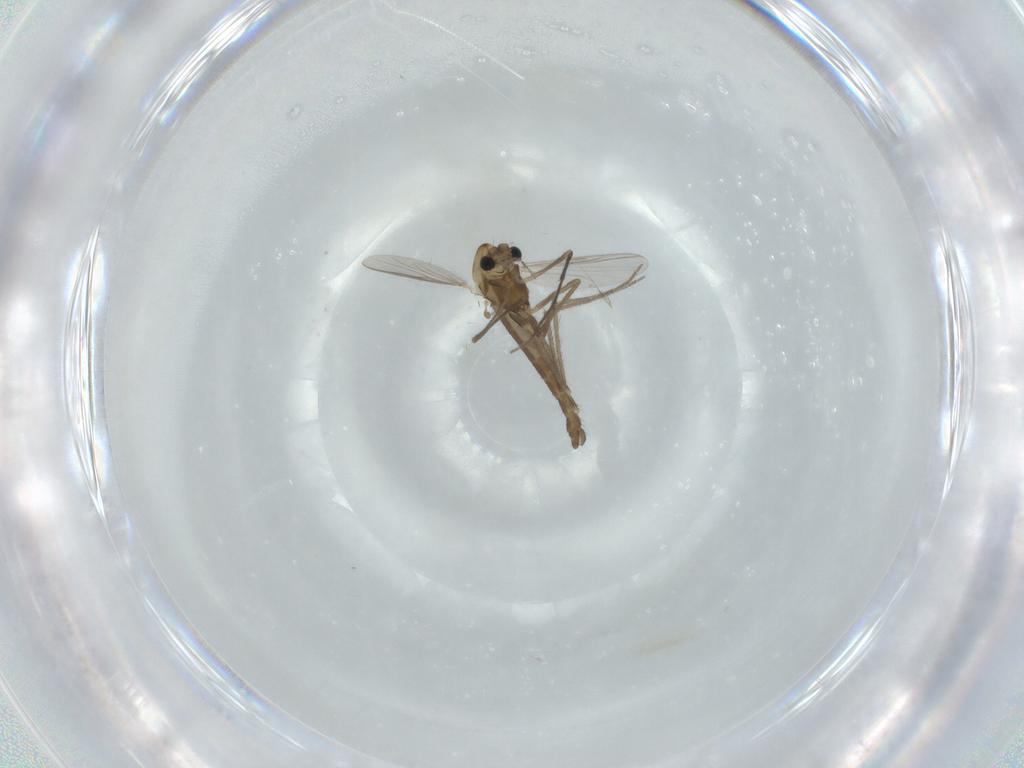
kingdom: Animalia
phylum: Arthropoda
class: Insecta
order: Diptera
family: Chironomidae
